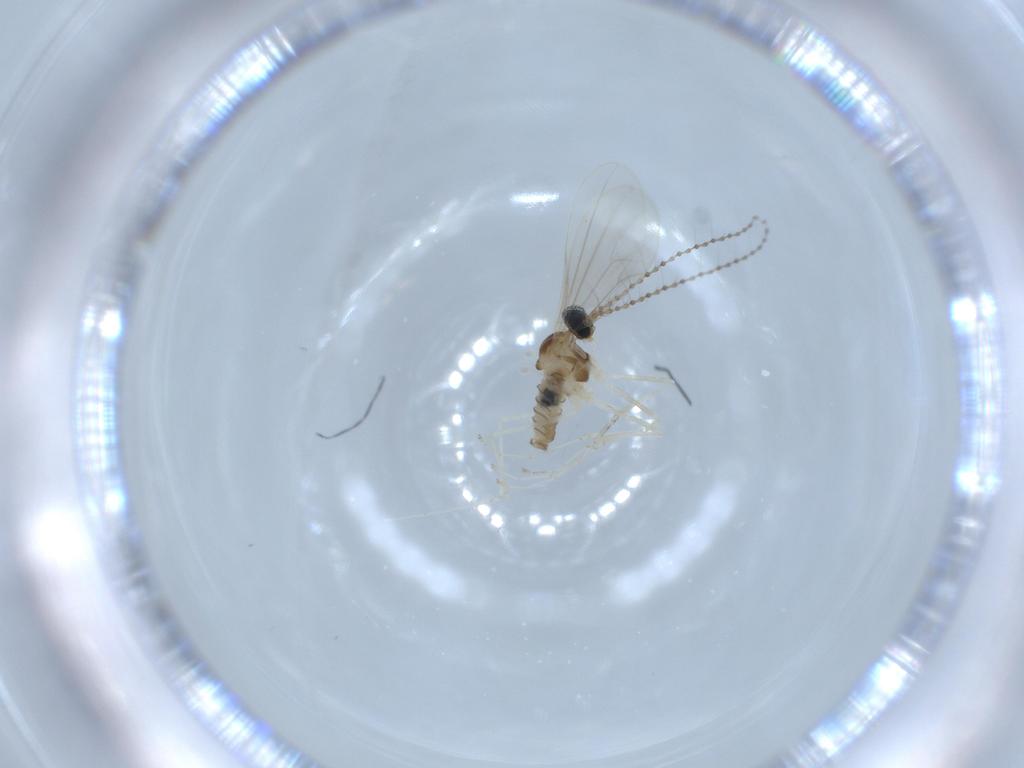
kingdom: Animalia
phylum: Arthropoda
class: Insecta
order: Diptera
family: Cecidomyiidae
